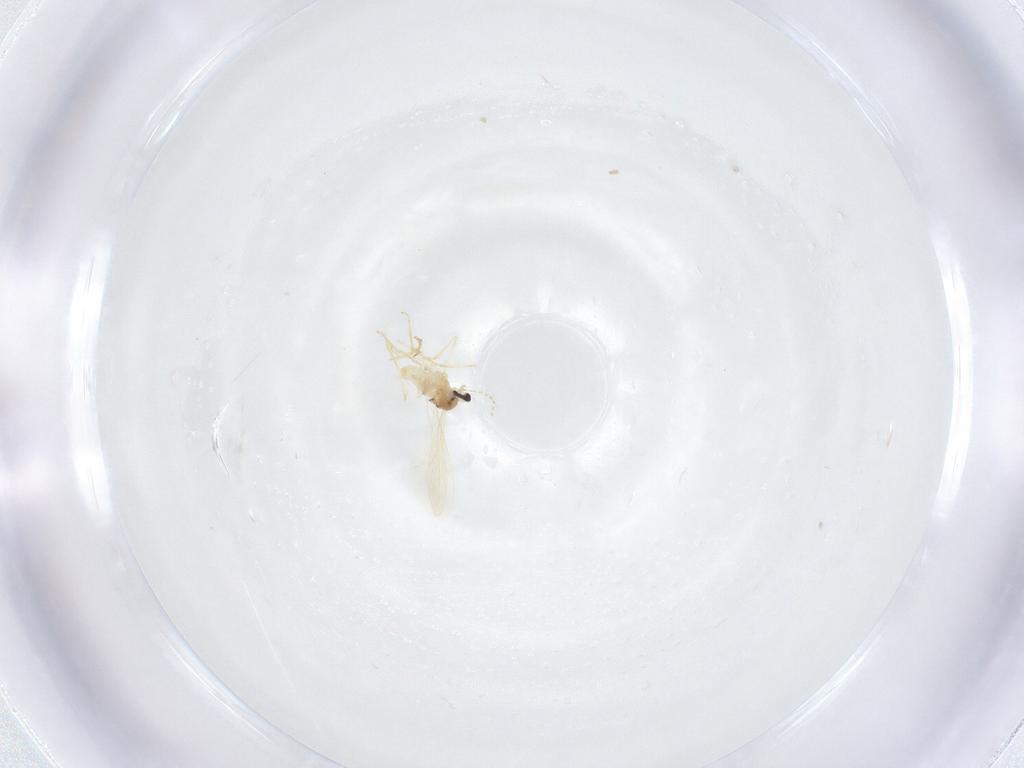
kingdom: Animalia
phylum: Arthropoda
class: Insecta
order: Diptera
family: Cecidomyiidae
